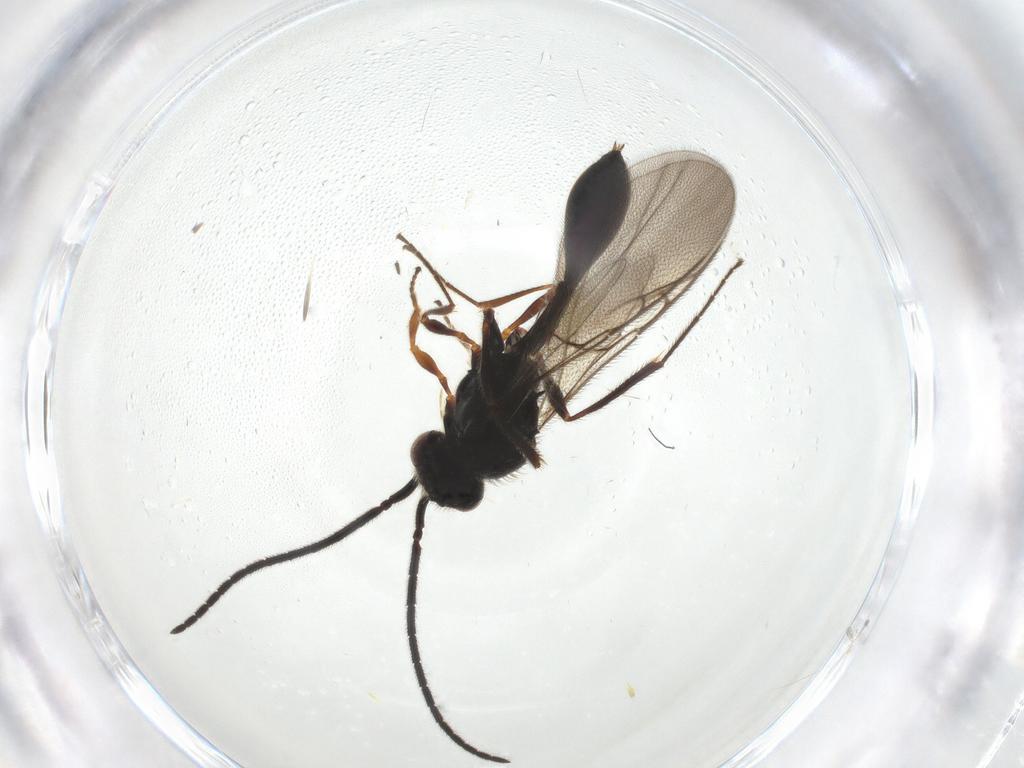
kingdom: Animalia
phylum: Arthropoda
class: Insecta
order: Hymenoptera
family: Diapriidae
